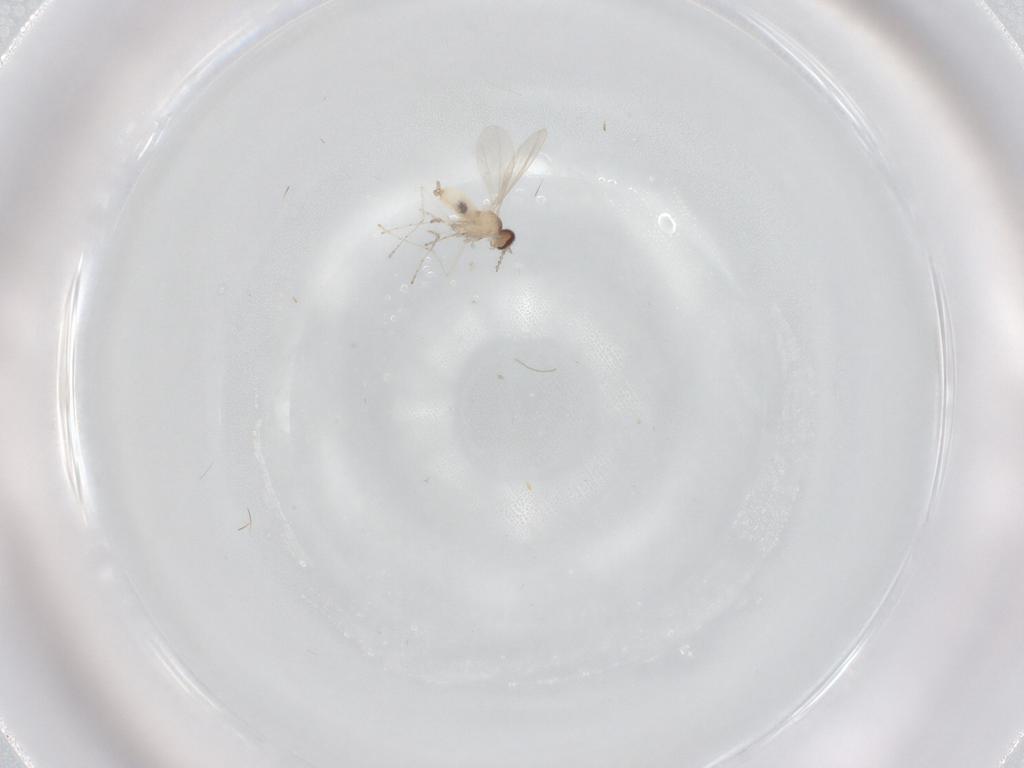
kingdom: Animalia
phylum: Arthropoda
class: Insecta
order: Diptera
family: Cecidomyiidae
